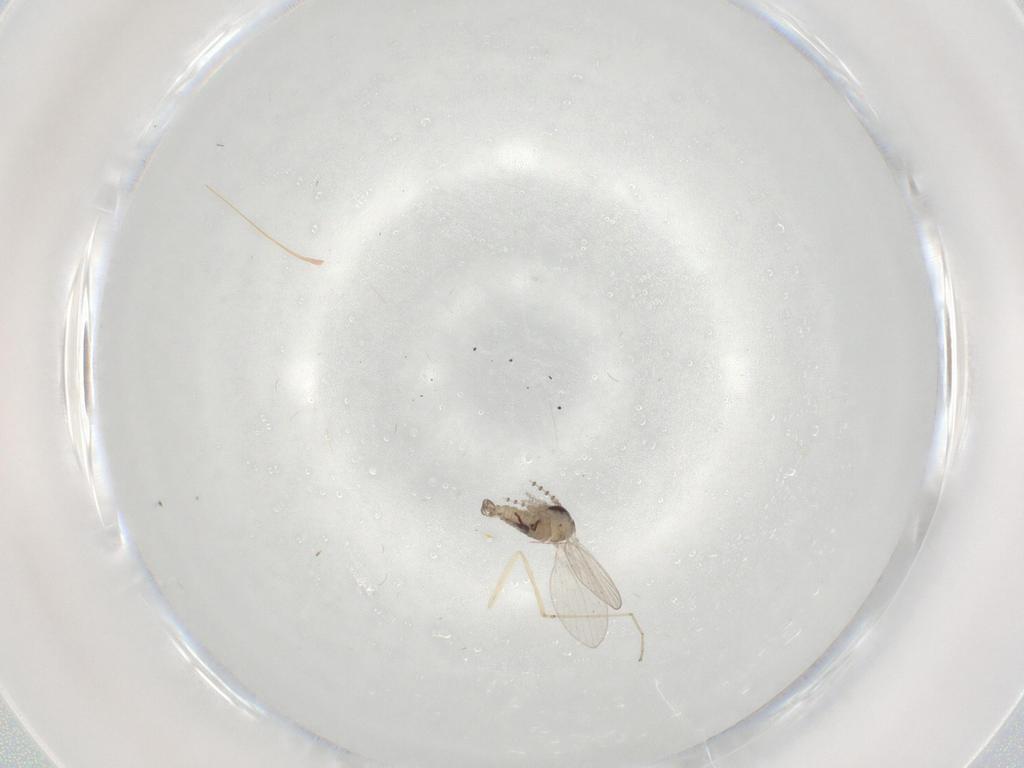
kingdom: Animalia
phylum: Arthropoda
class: Insecta
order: Diptera
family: Psychodidae
